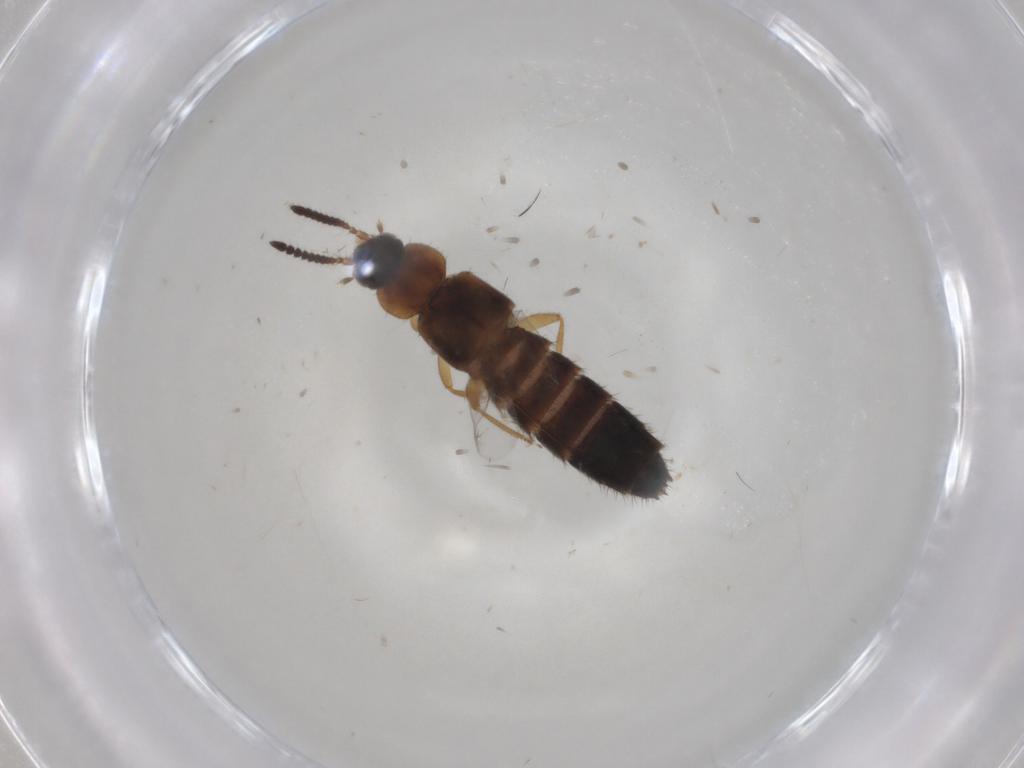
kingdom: Animalia
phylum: Arthropoda
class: Insecta
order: Coleoptera
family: Staphylinidae
